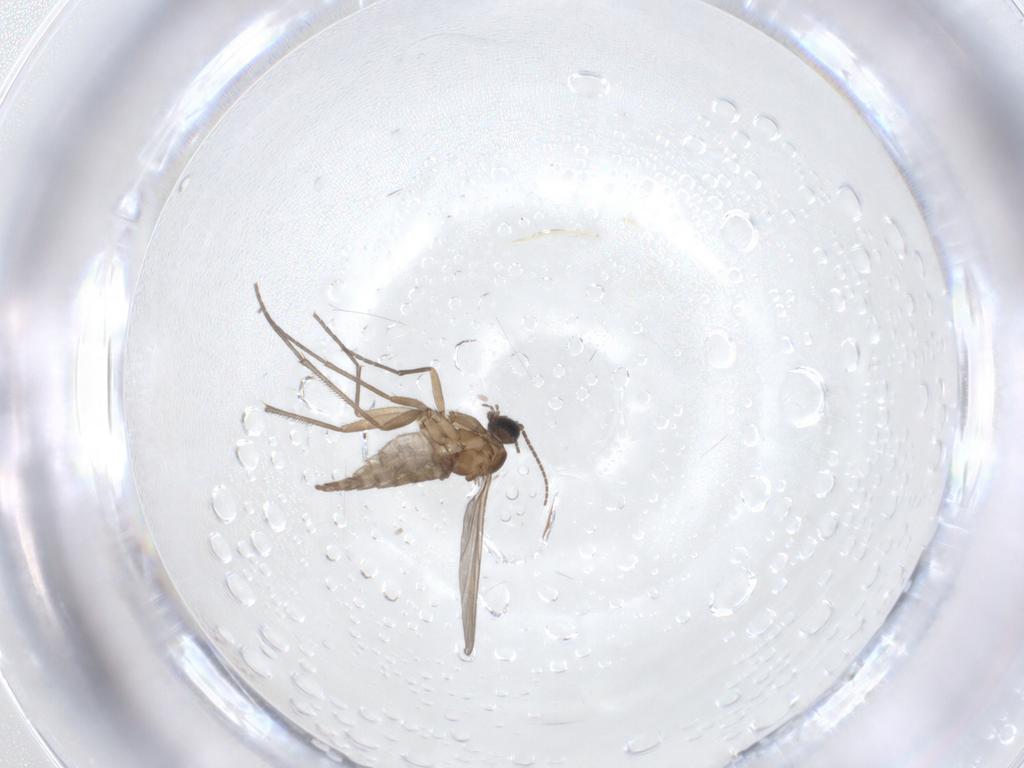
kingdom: Animalia
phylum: Arthropoda
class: Insecta
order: Diptera
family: Sciaridae
